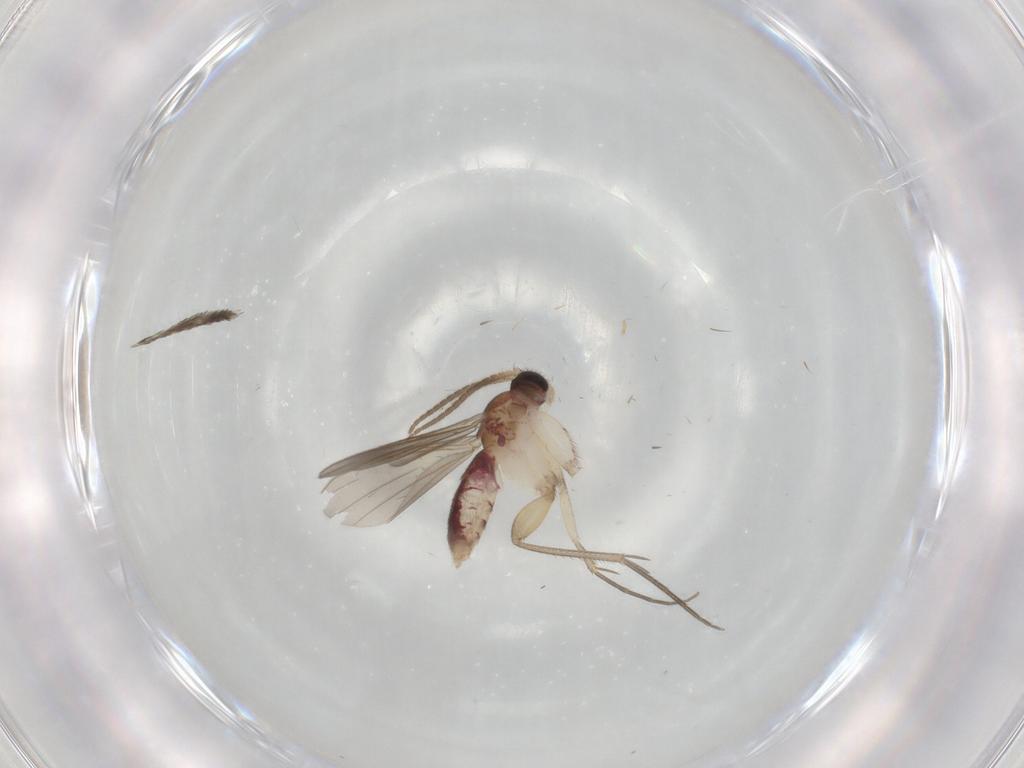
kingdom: Animalia
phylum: Arthropoda
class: Insecta
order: Diptera
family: Mycetophilidae
